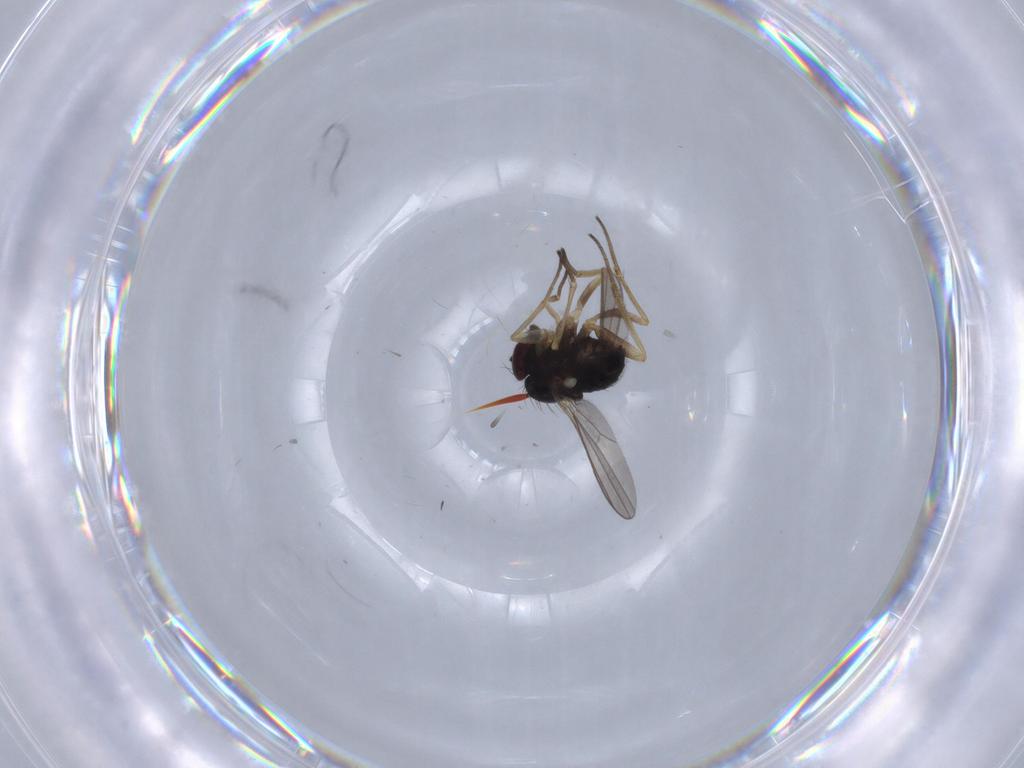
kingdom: Animalia
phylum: Arthropoda
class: Insecta
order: Diptera
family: Dolichopodidae
